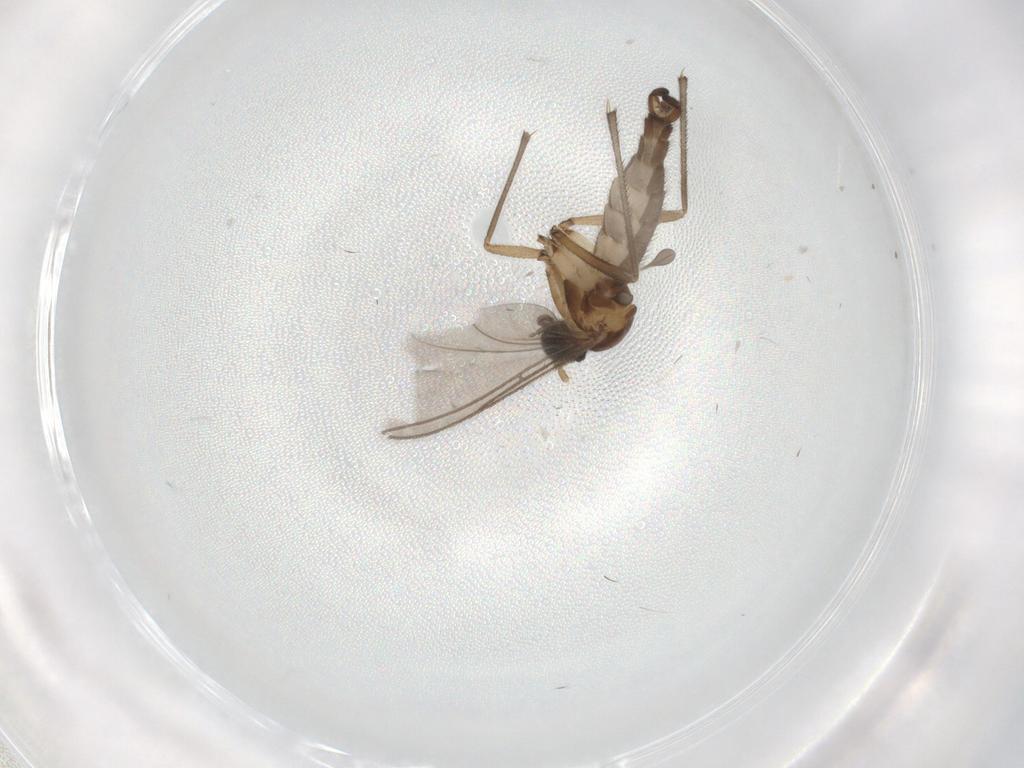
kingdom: Animalia
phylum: Arthropoda
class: Insecta
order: Diptera
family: Sciaridae
